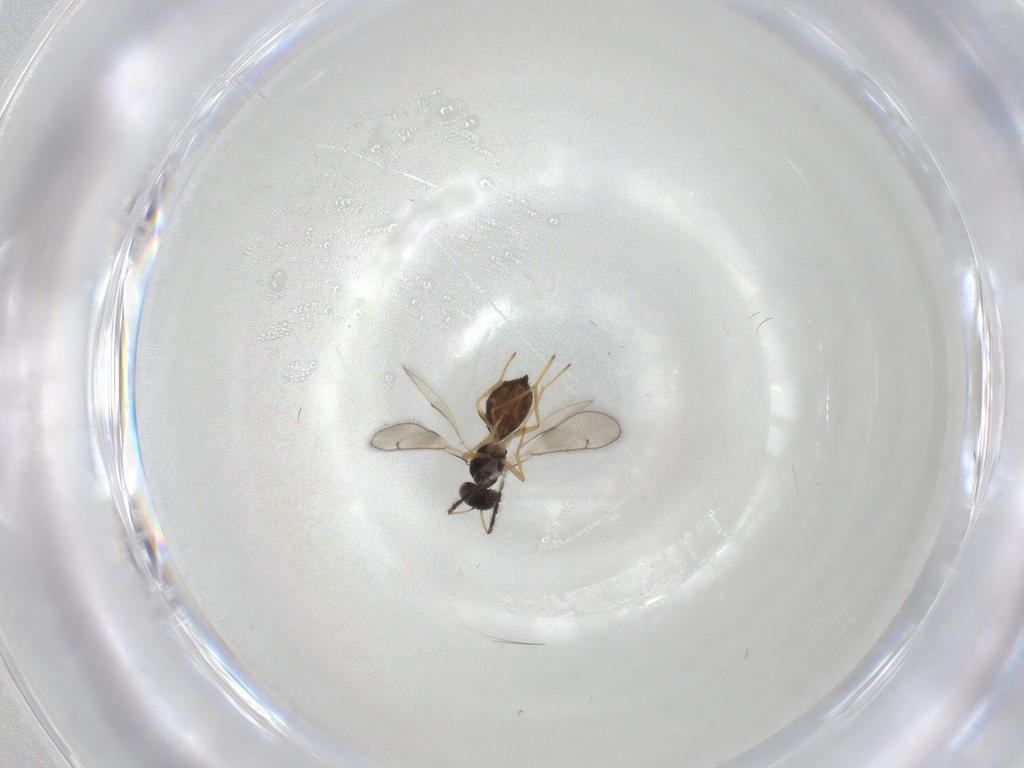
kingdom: Animalia
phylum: Arthropoda
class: Insecta
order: Hymenoptera
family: Eulophidae
